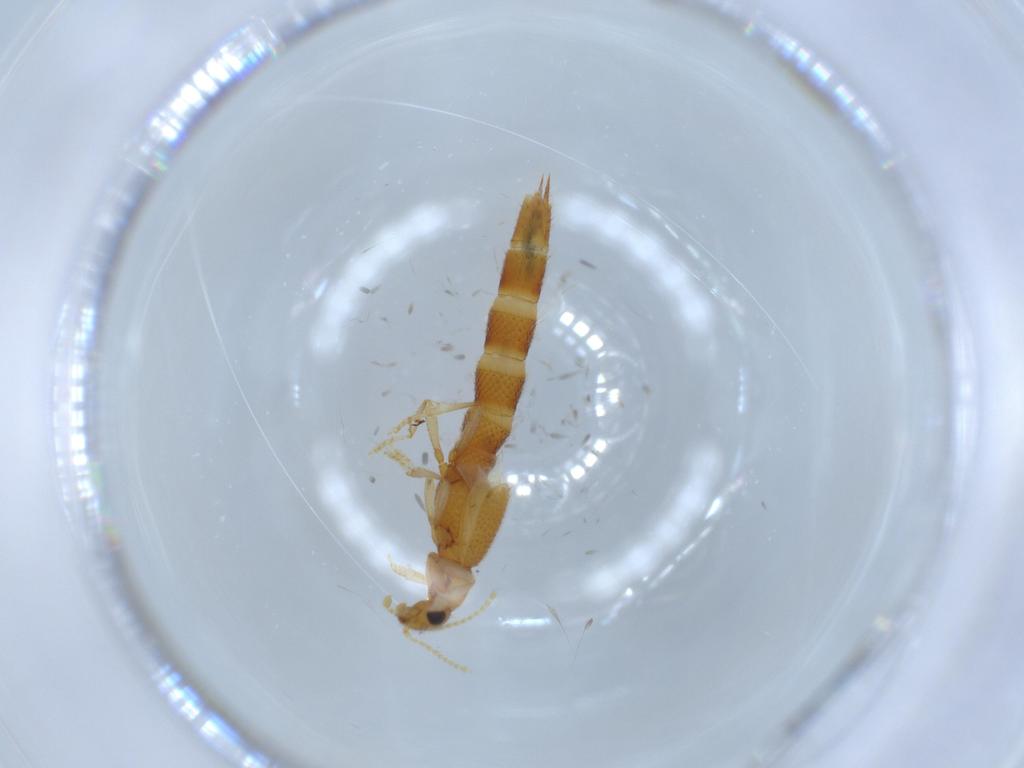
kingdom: Animalia
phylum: Arthropoda
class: Insecta
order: Coleoptera
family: Staphylinidae
